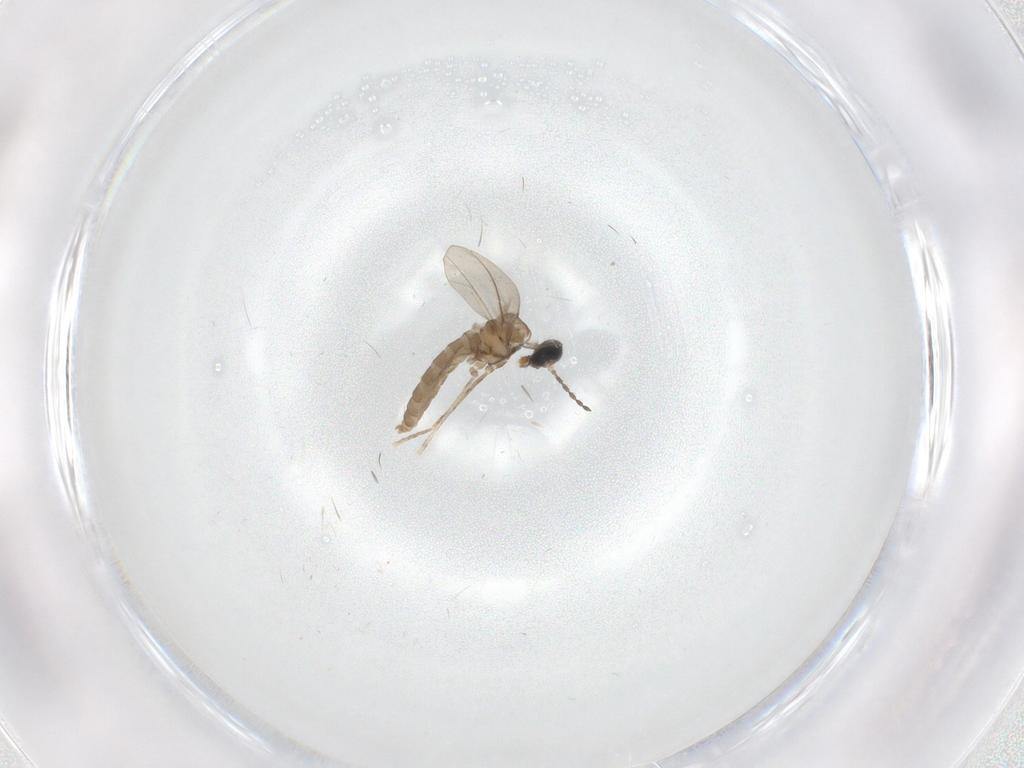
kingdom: Animalia
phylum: Arthropoda
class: Insecta
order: Diptera
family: Cecidomyiidae
